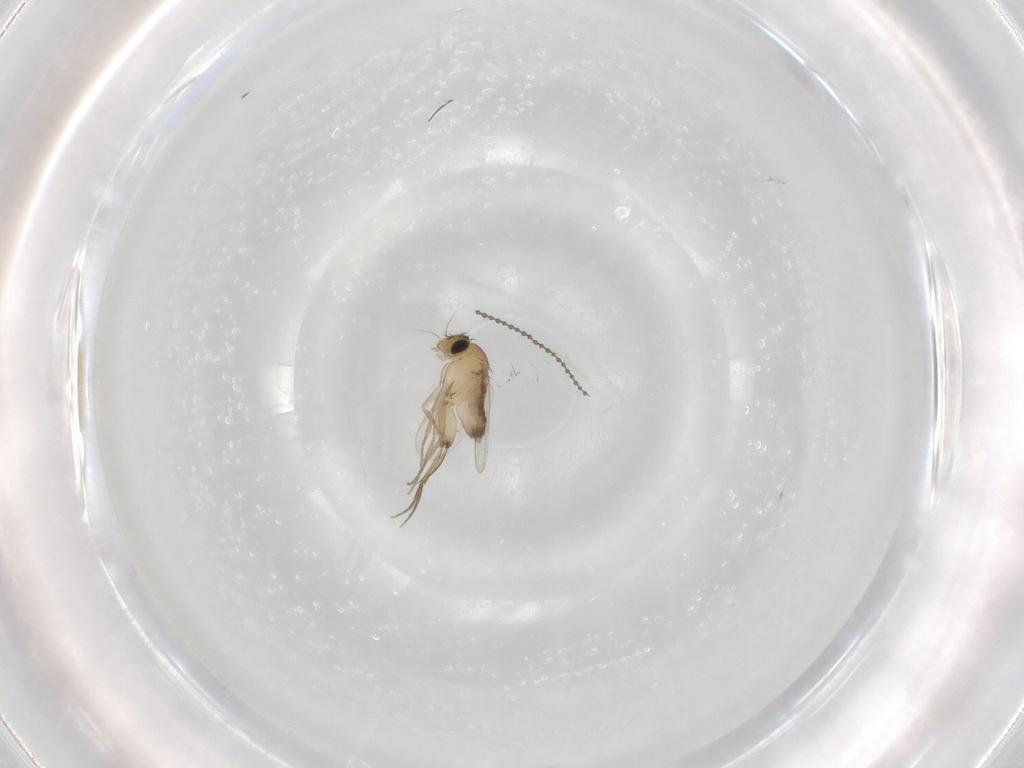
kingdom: Animalia
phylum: Arthropoda
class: Insecta
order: Diptera
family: Phoridae
